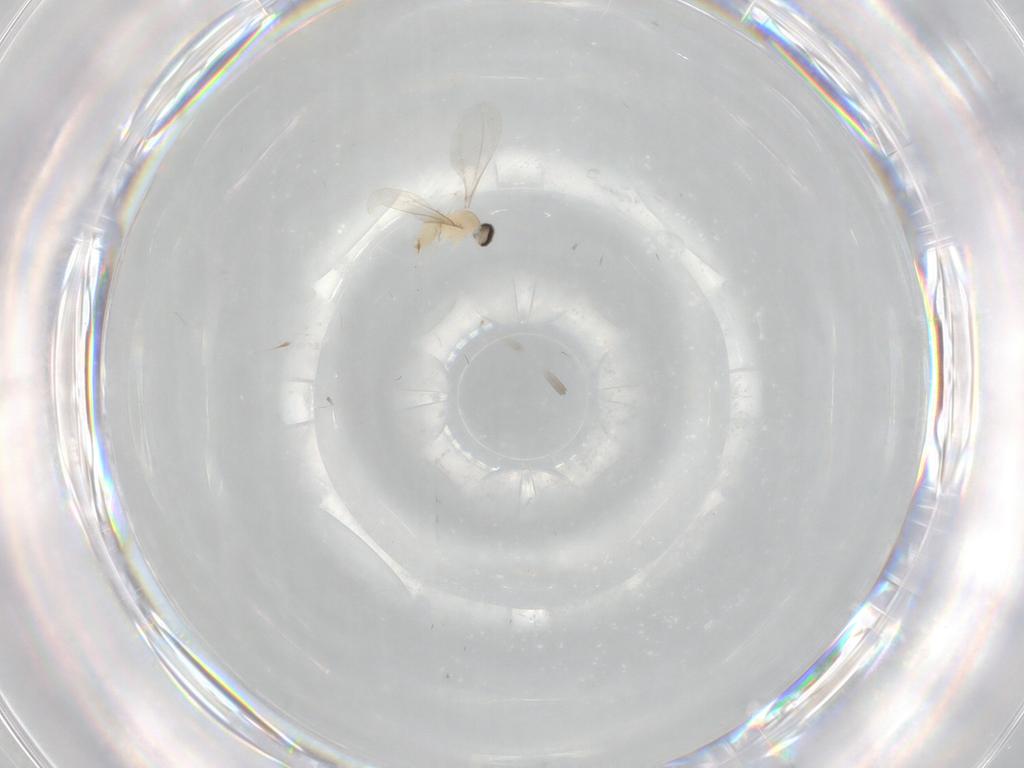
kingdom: Animalia
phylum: Arthropoda
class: Insecta
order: Diptera
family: Cecidomyiidae
